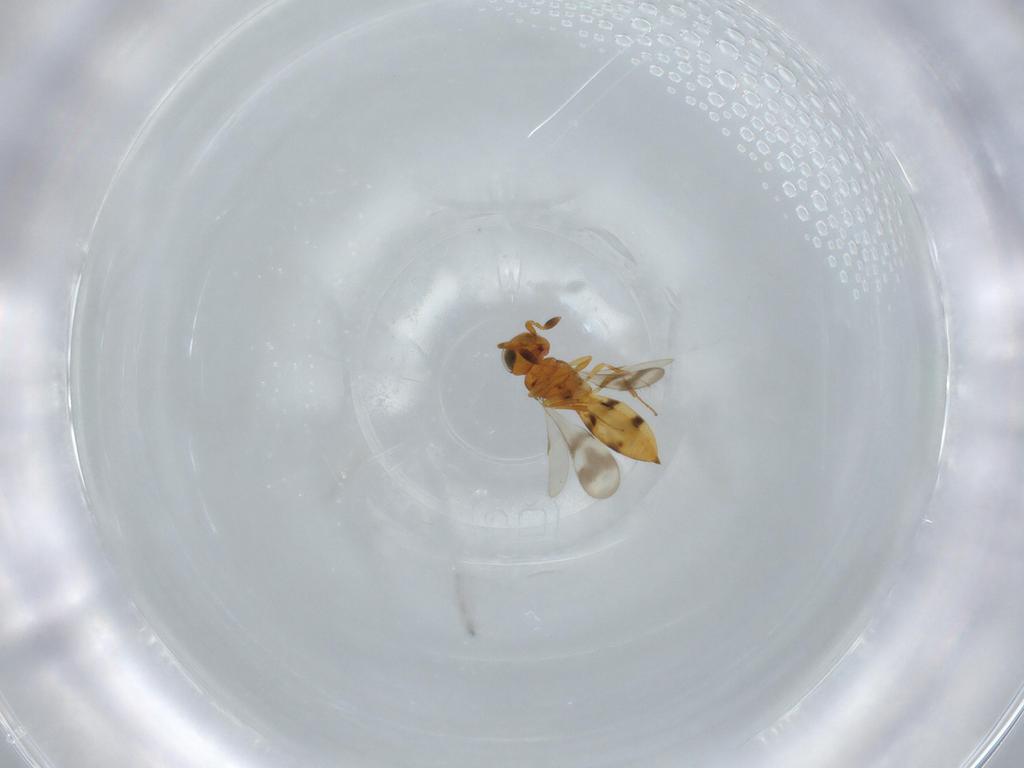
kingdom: Animalia
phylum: Arthropoda
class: Insecta
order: Hymenoptera
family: Scelionidae
